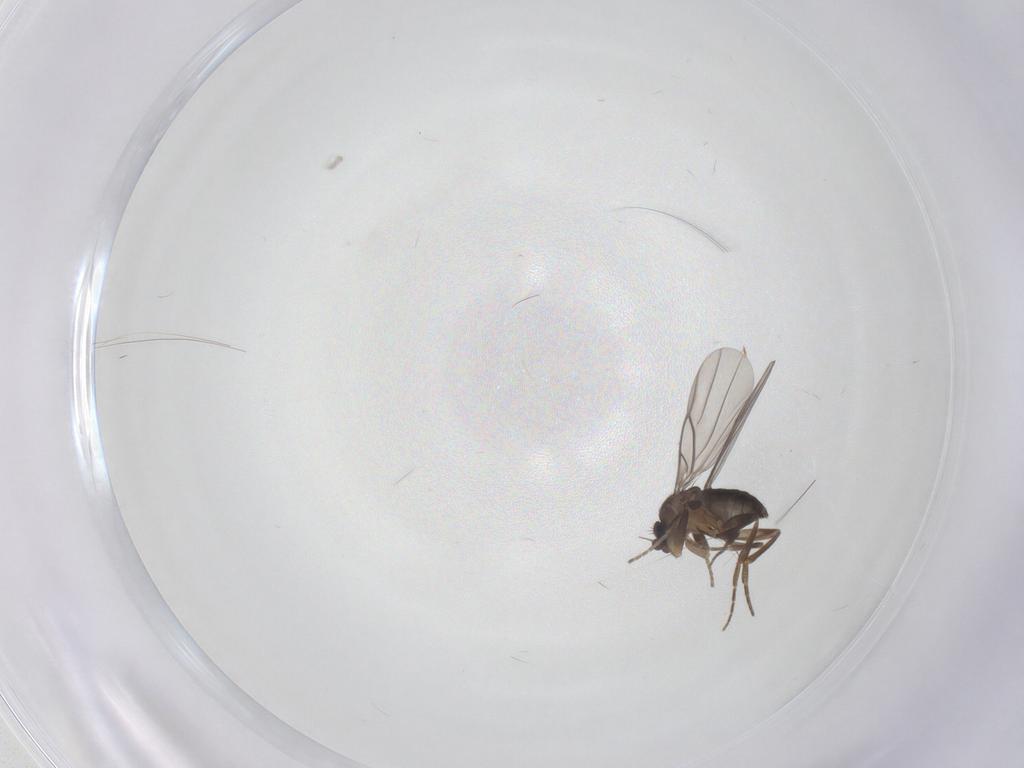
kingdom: Animalia
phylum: Arthropoda
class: Insecta
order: Diptera
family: Phoridae
